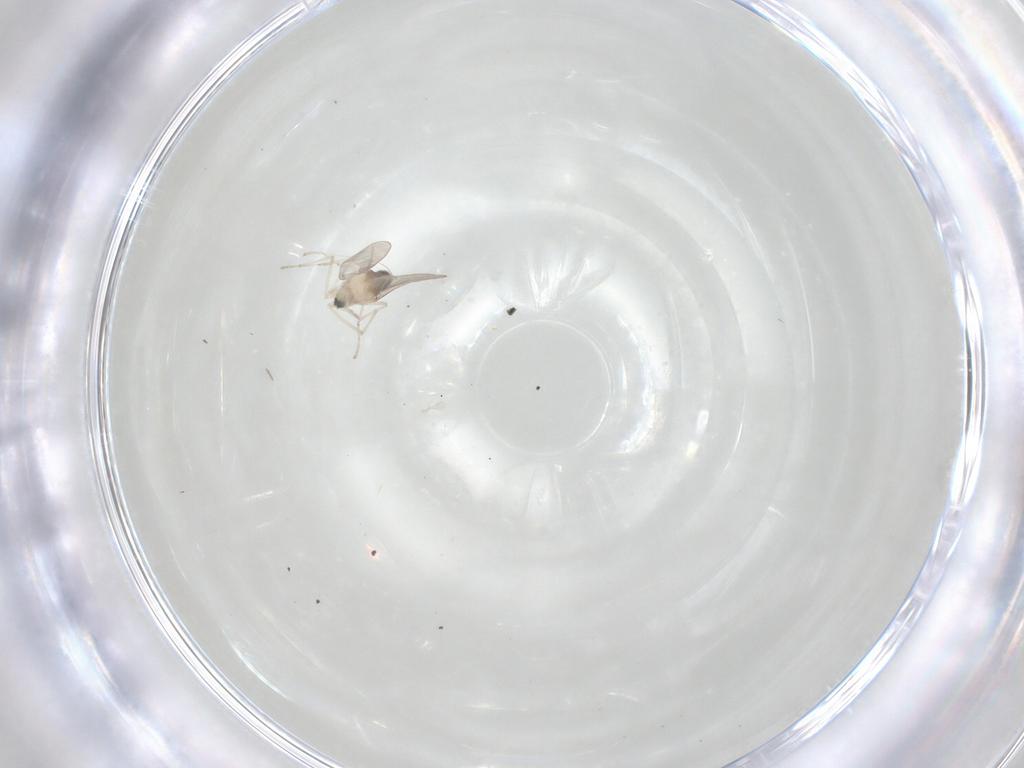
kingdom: Animalia
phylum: Arthropoda
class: Insecta
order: Diptera
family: Cecidomyiidae
